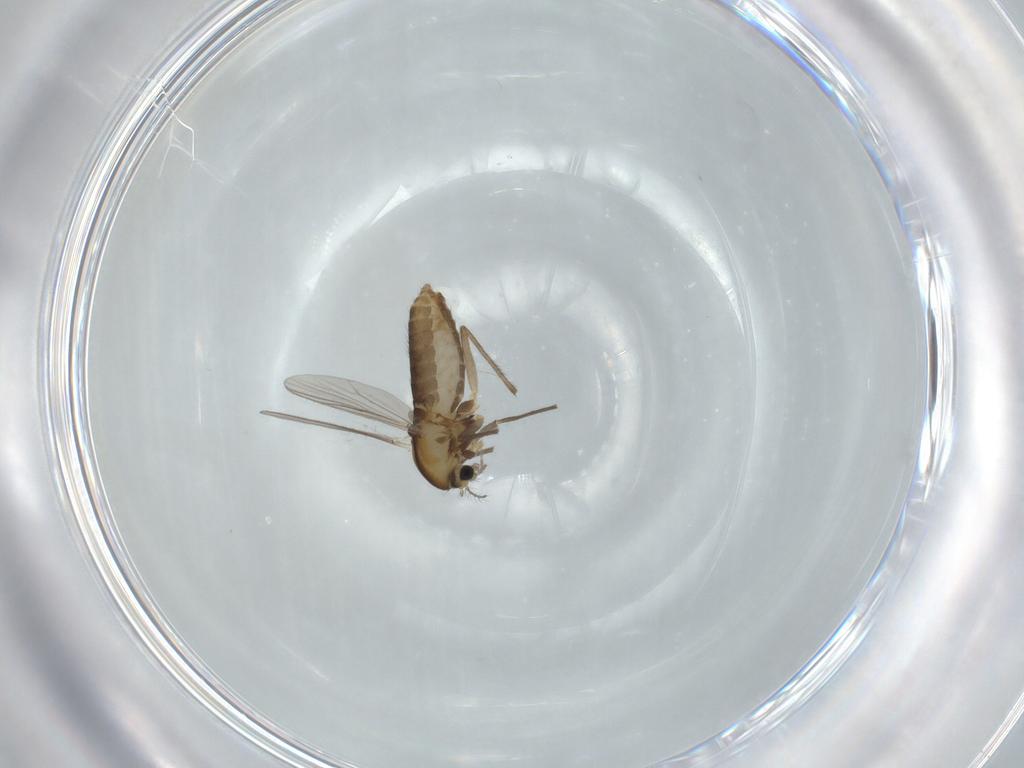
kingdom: Animalia
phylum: Arthropoda
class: Insecta
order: Diptera
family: Chironomidae
